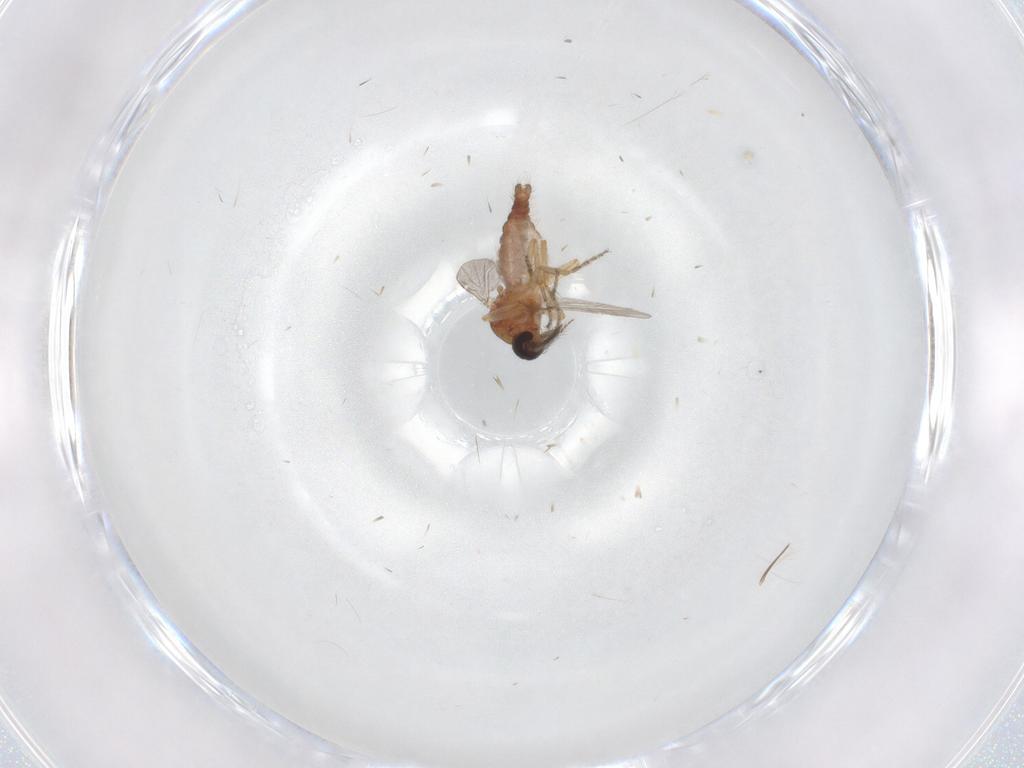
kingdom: Animalia
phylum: Arthropoda
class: Insecta
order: Diptera
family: Ceratopogonidae
